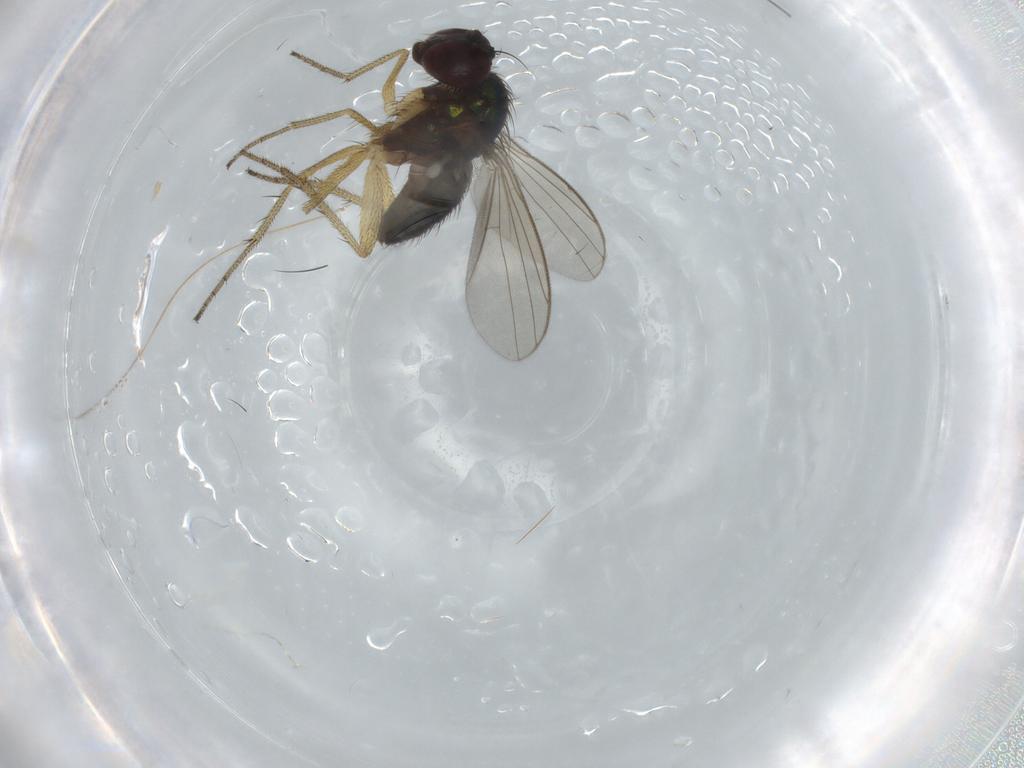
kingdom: Animalia
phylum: Arthropoda
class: Insecta
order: Diptera
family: Dolichopodidae
